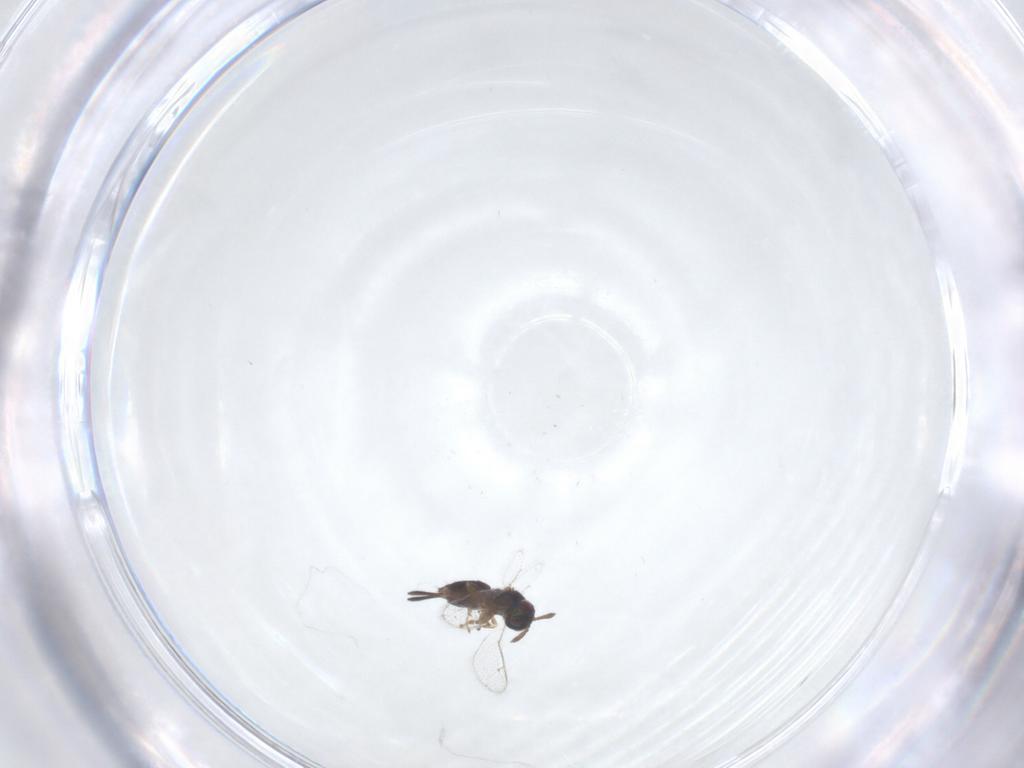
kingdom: Animalia
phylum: Arthropoda
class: Insecta
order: Hymenoptera
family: Torymidae
